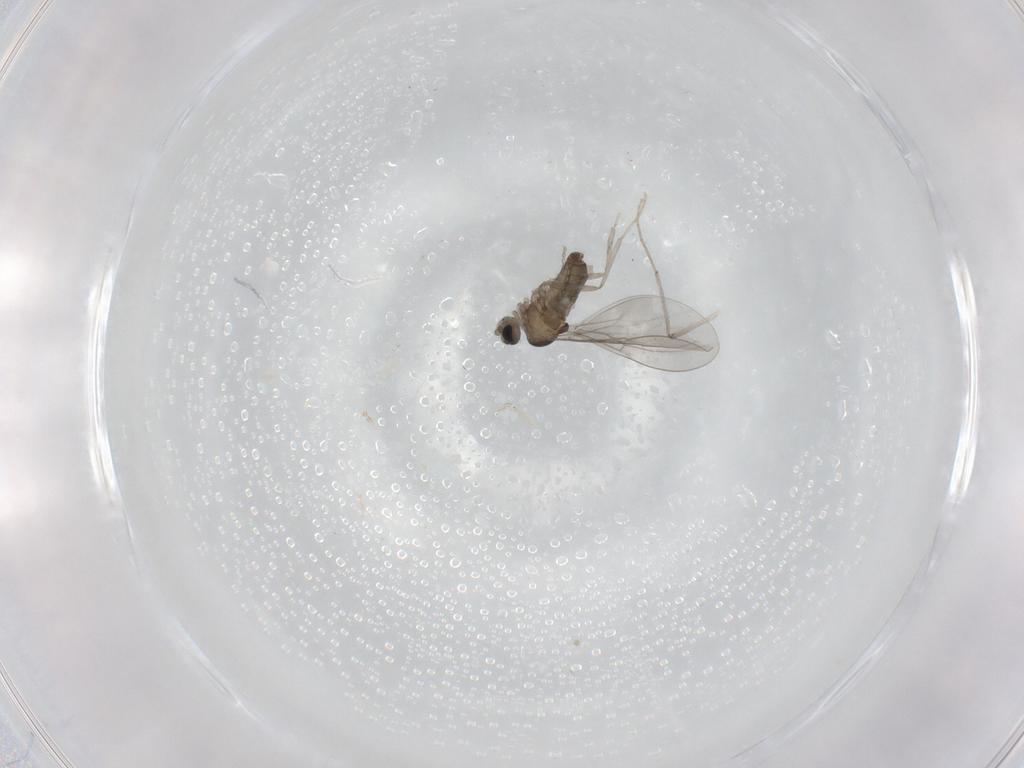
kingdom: Animalia
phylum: Arthropoda
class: Insecta
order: Diptera
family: Cecidomyiidae
